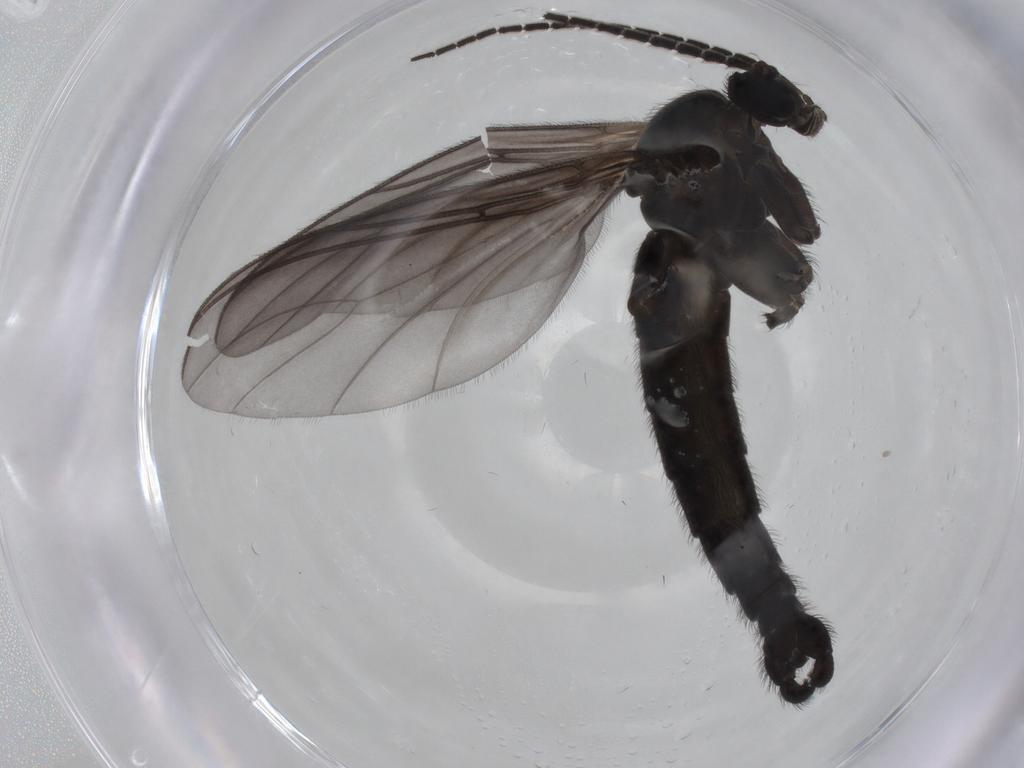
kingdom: Animalia
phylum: Arthropoda
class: Insecta
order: Diptera
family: Sciaridae
